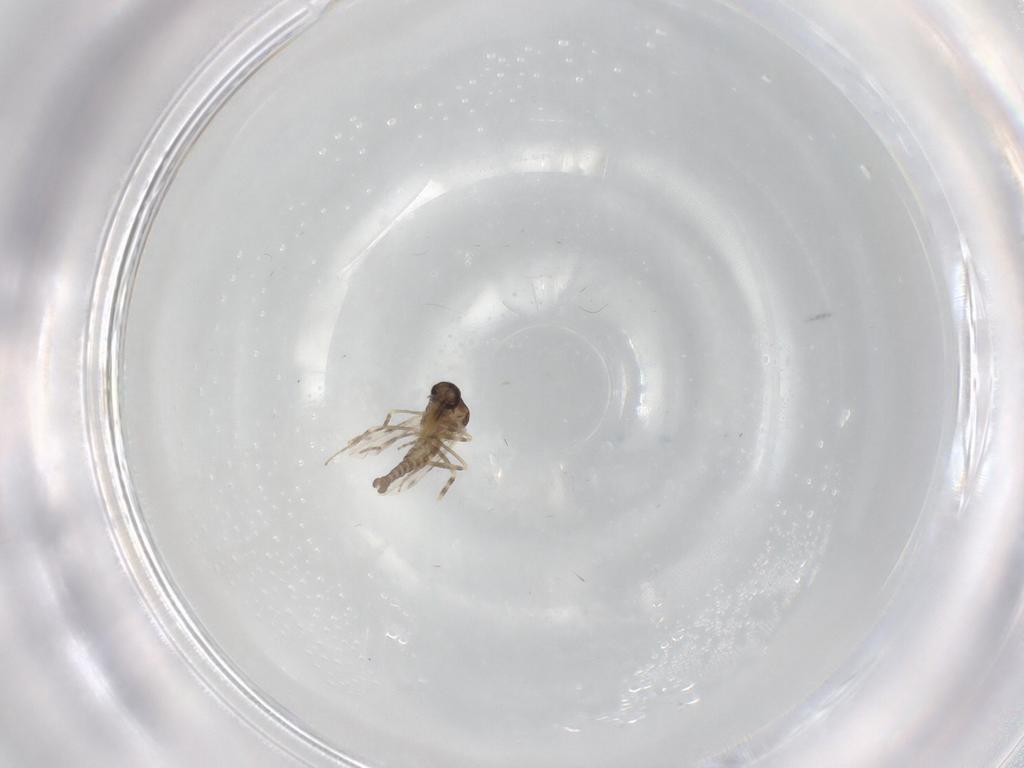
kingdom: Animalia
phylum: Arthropoda
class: Insecta
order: Diptera
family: Ceratopogonidae
